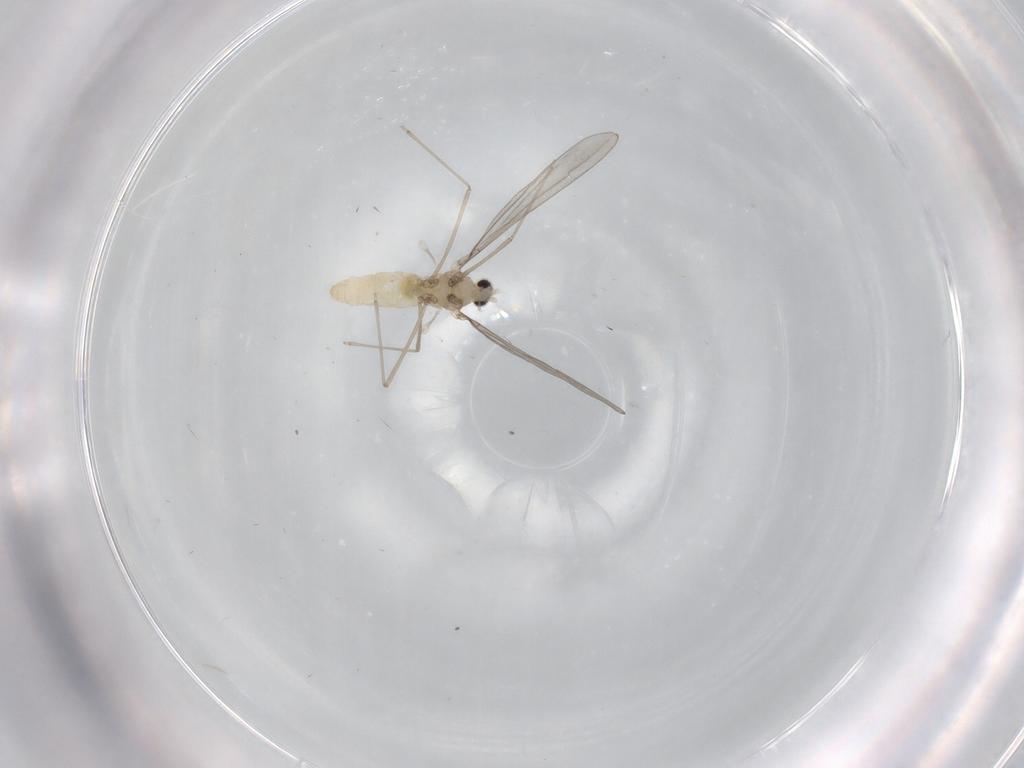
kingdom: Animalia
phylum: Arthropoda
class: Insecta
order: Diptera
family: Cecidomyiidae
